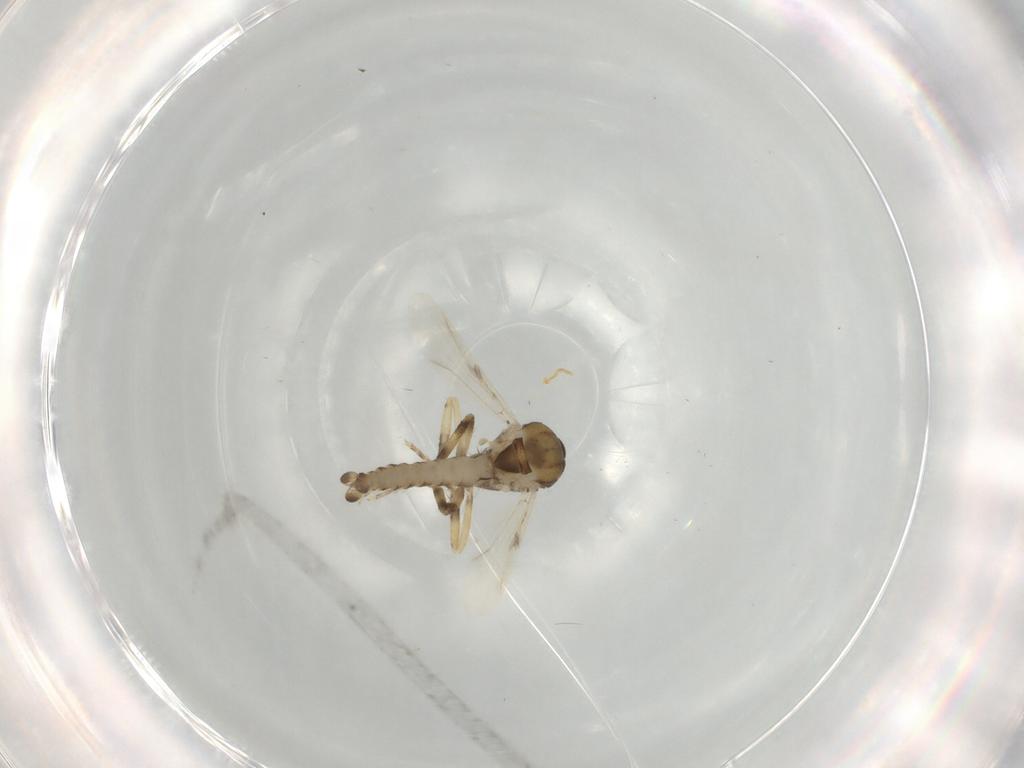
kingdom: Animalia
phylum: Arthropoda
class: Insecta
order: Diptera
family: Ceratopogonidae
